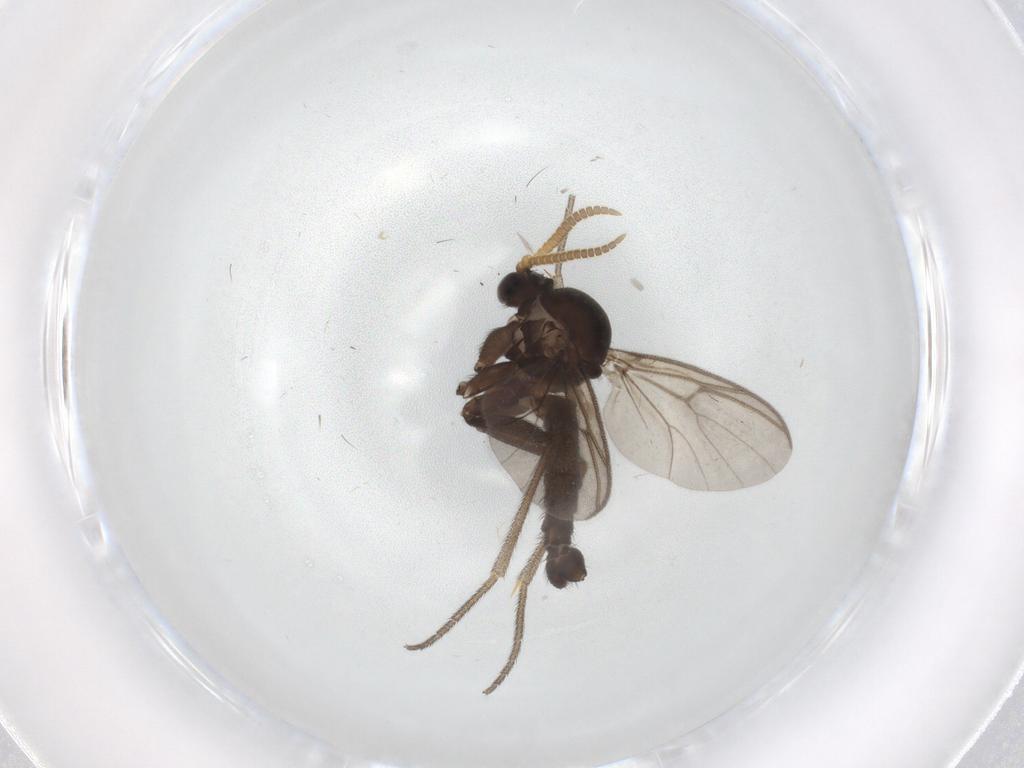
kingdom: Animalia
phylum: Arthropoda
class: Insecta
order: Diptera
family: Mycetophilidae
